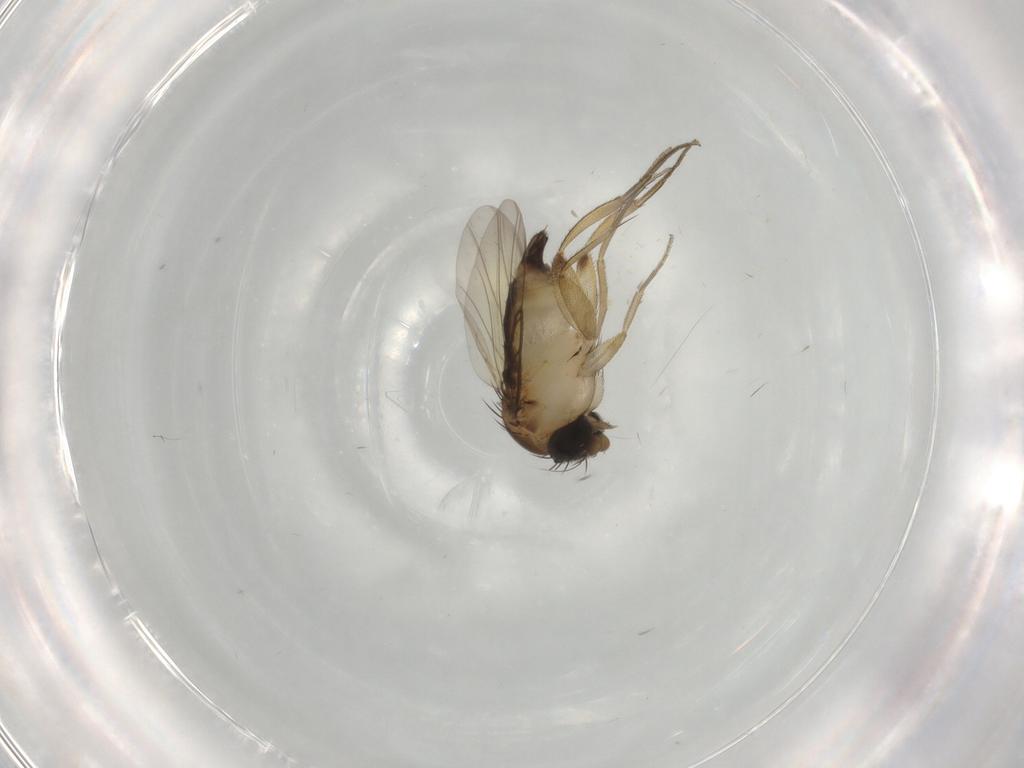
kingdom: Animalia
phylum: Arthropoda
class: Insecta
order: Diptera
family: Phoridae
